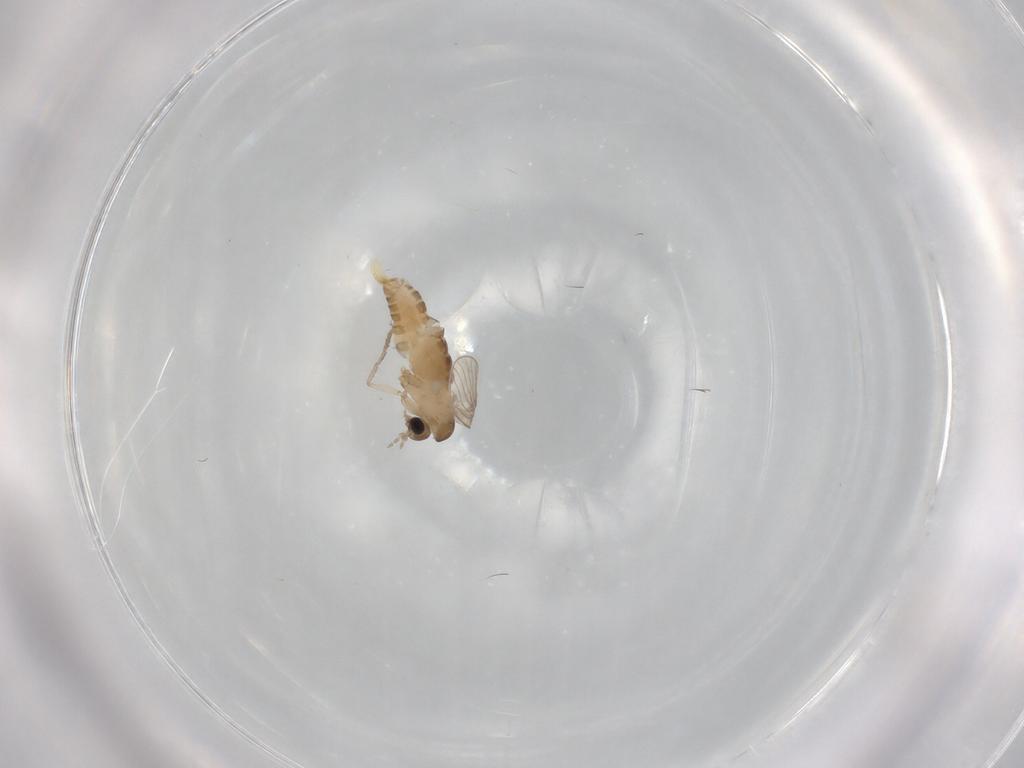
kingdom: Animalia
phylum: Arthropoda
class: Insecta
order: Diptera
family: Psychodidae
